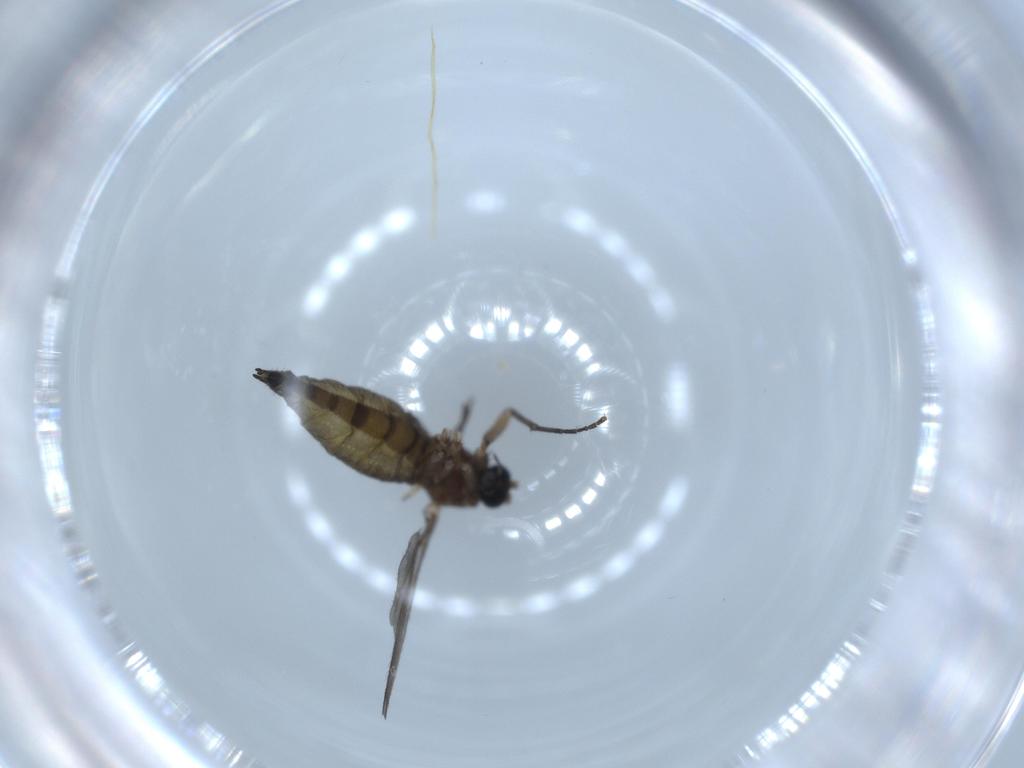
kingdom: Animalia
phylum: Arthropoda
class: Insecta
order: Diptera
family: Sciaridae
